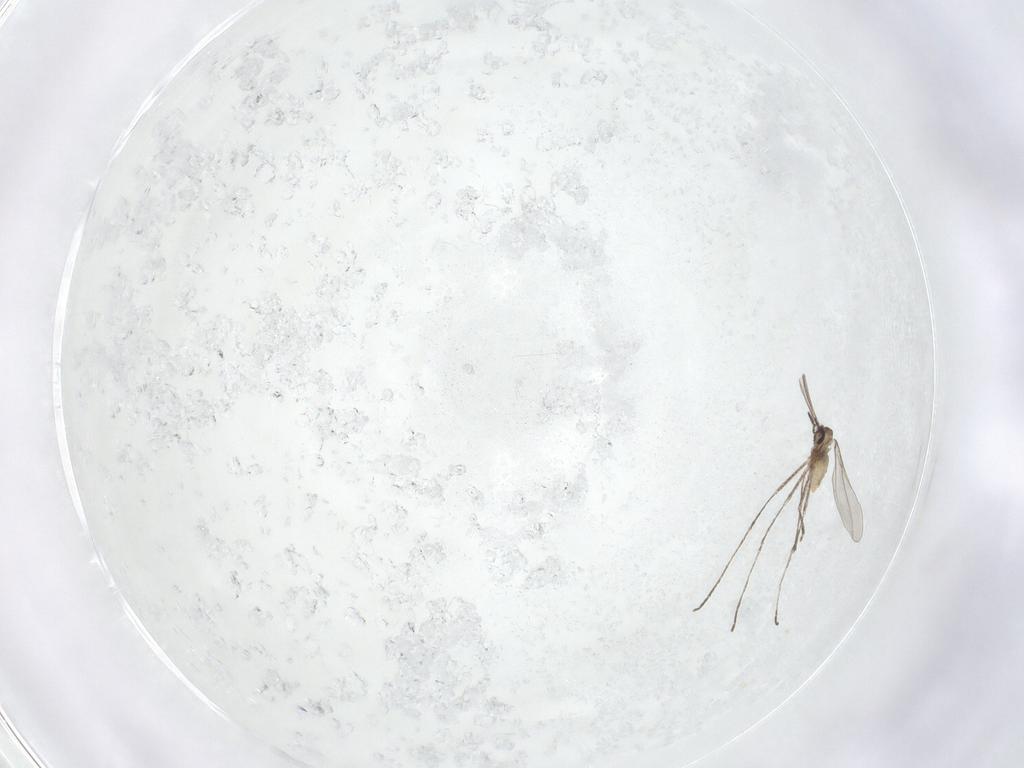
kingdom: Animalia
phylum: Arthropoda
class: Insecta
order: Diptera
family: Cecidomyiidae
